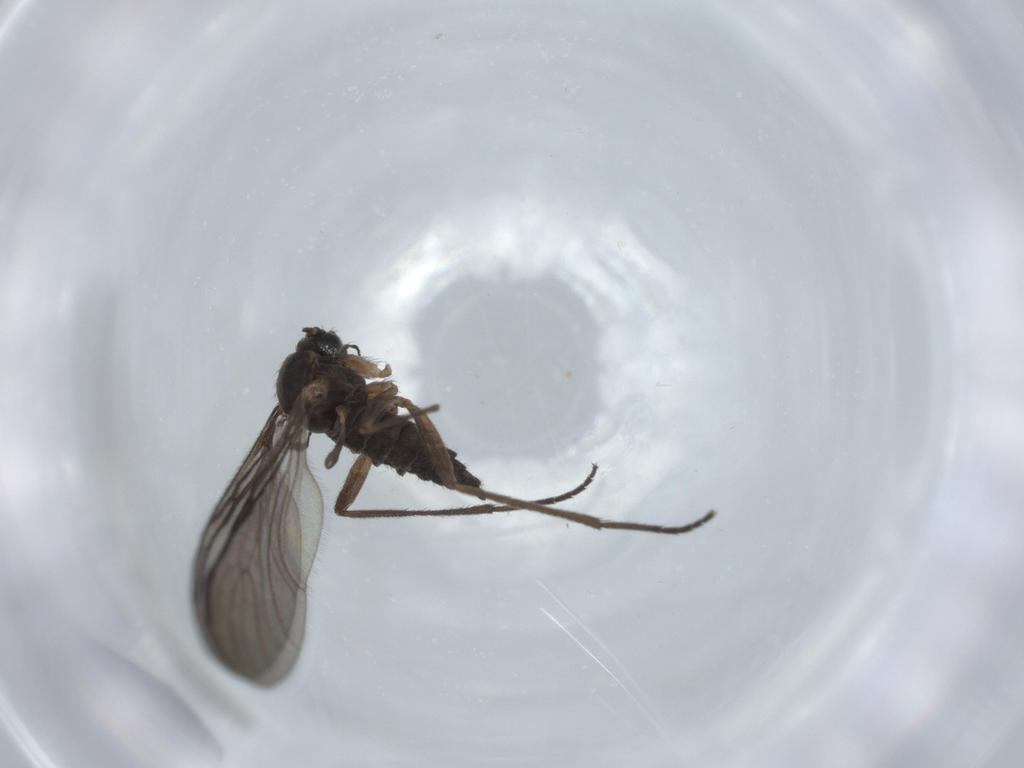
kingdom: Animalia
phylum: Arthropoda
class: Insecta
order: Diptera
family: Sciaridae
